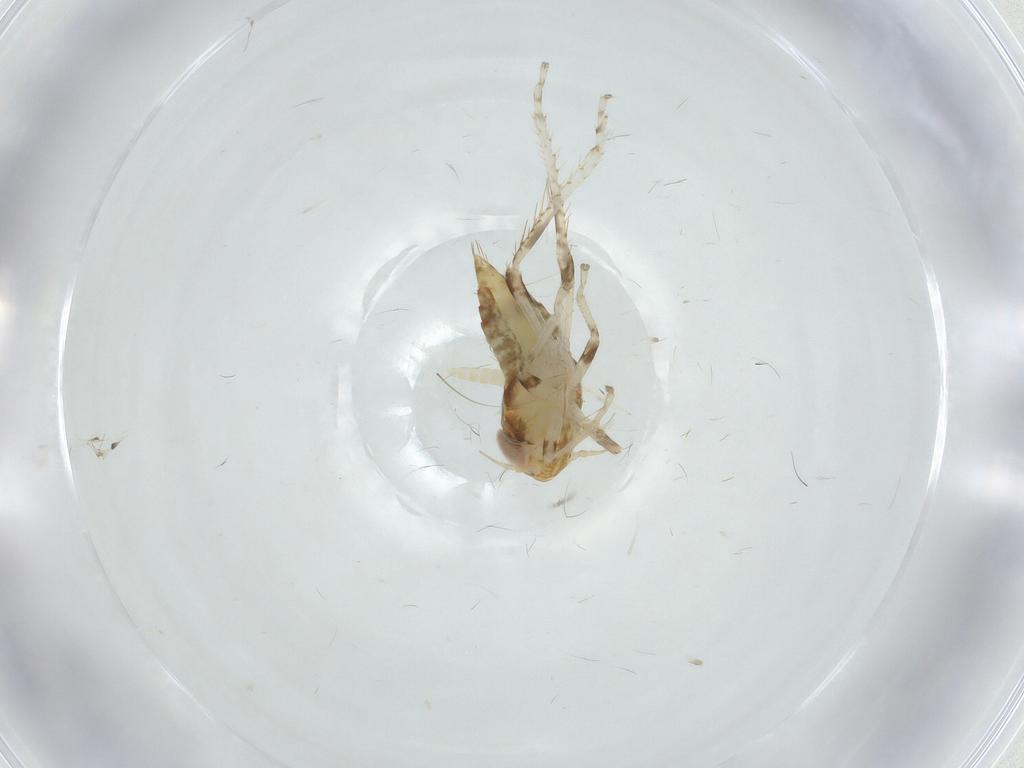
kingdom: Animalia
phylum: Arthropoda
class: Insecta
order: Hemiptera
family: Cicadellidae
